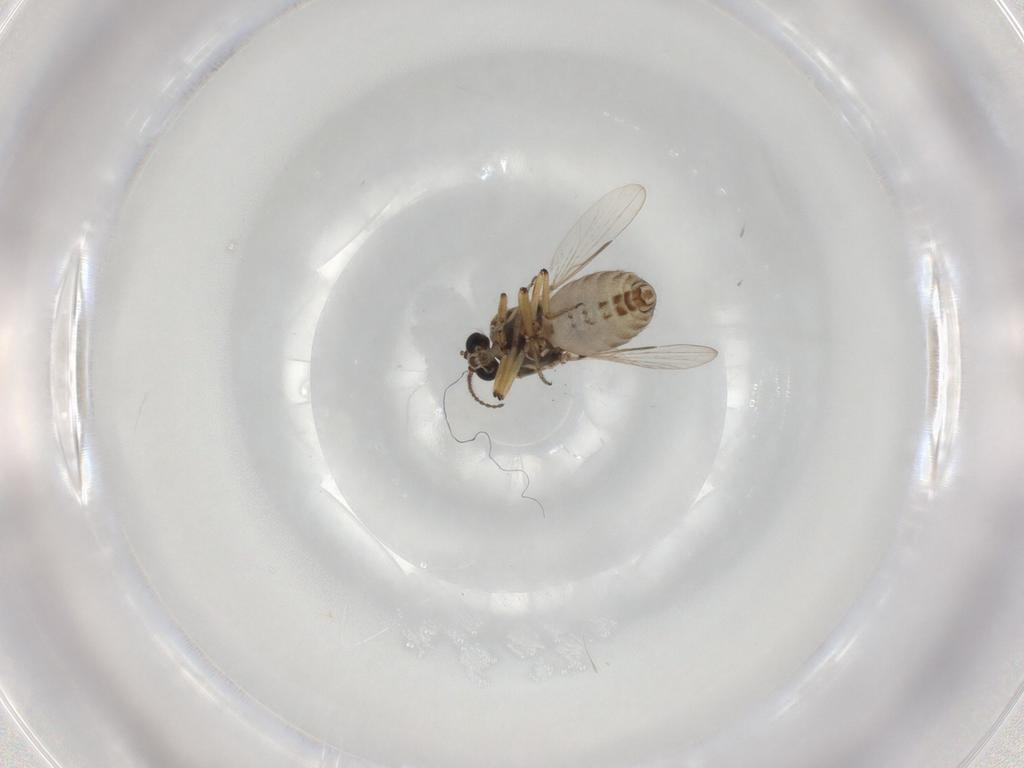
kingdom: Animalia
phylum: Arthropoda
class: Insecta
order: Diptera
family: Ceratopogonidae
